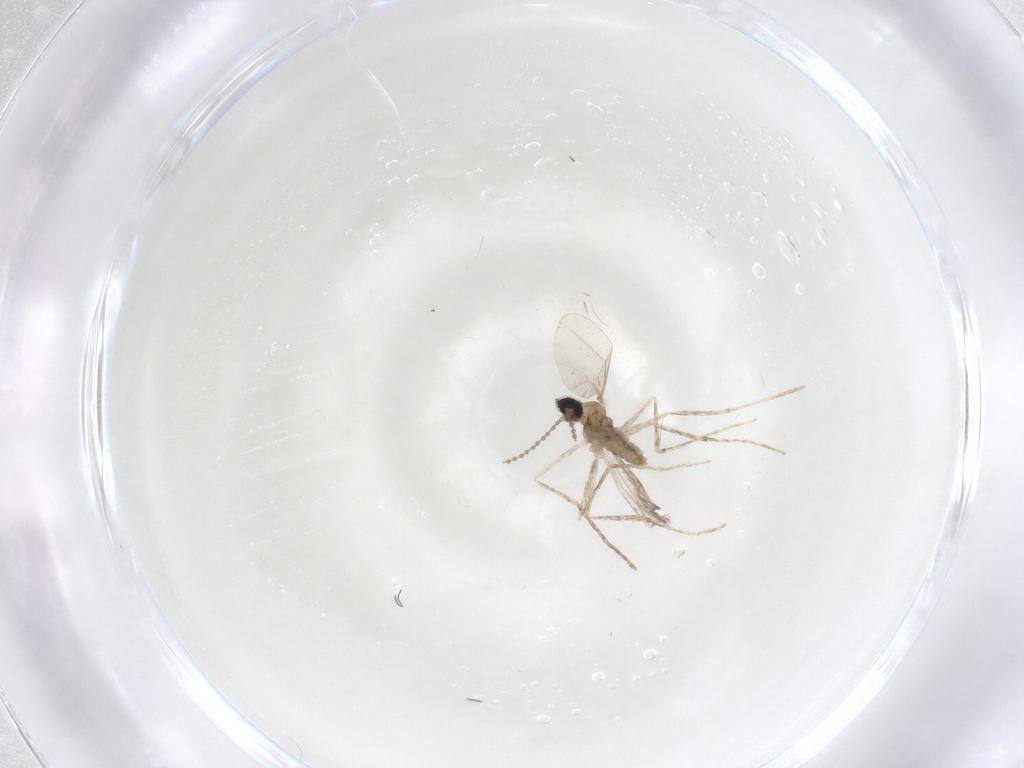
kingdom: Animalia
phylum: Arthropoda
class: Insecta
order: Diptera
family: Cecidomyiidae
